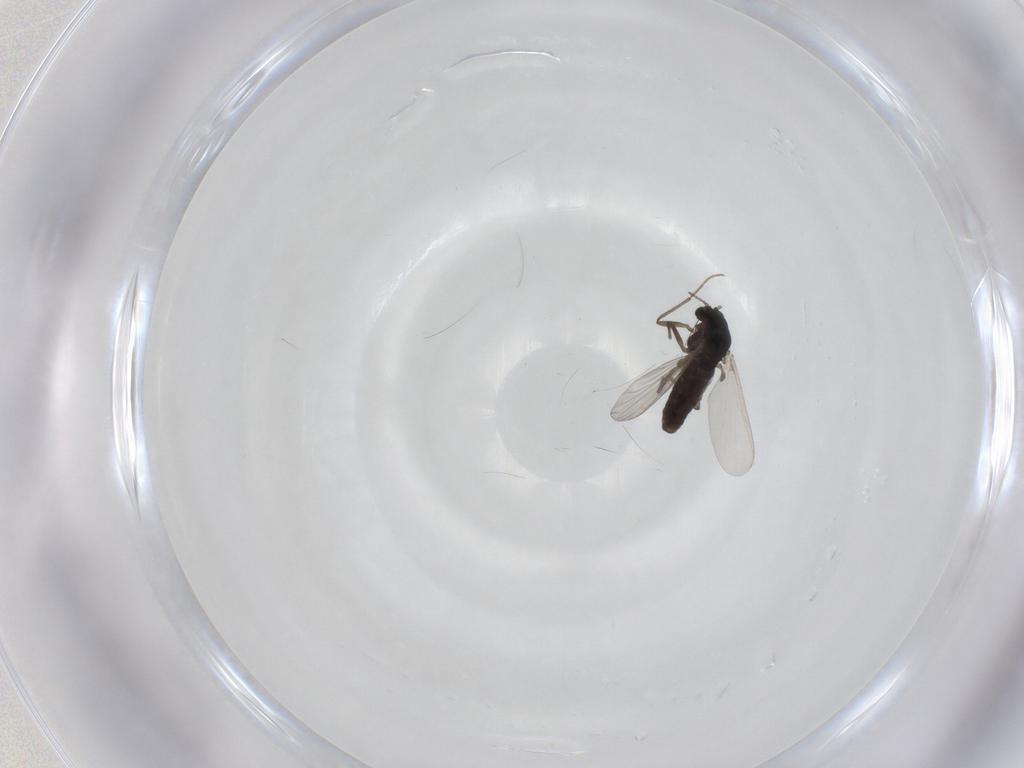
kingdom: Animalia
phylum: Arthropoda
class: Insecta
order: Diptera
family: Chironomidae
